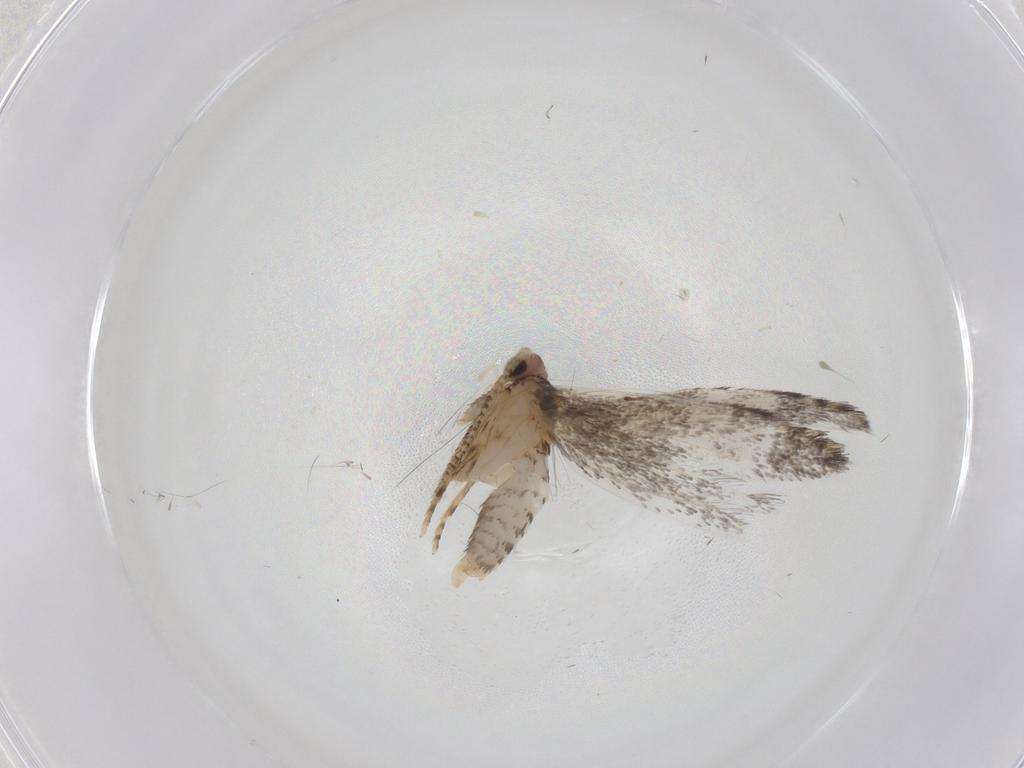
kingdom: Animalia
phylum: Arthropoda
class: Insecta
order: Lepidoptera
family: Tineidae
